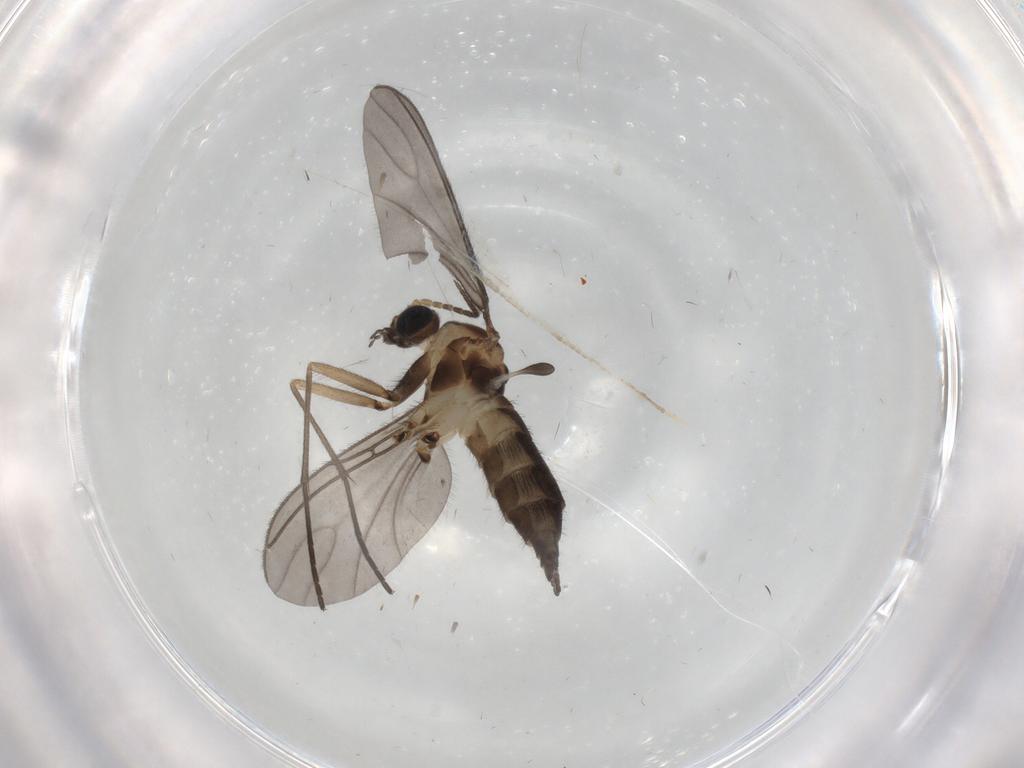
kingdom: Animalia
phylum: Arthropoda
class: Insecta
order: Diptera
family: Sciaridae
